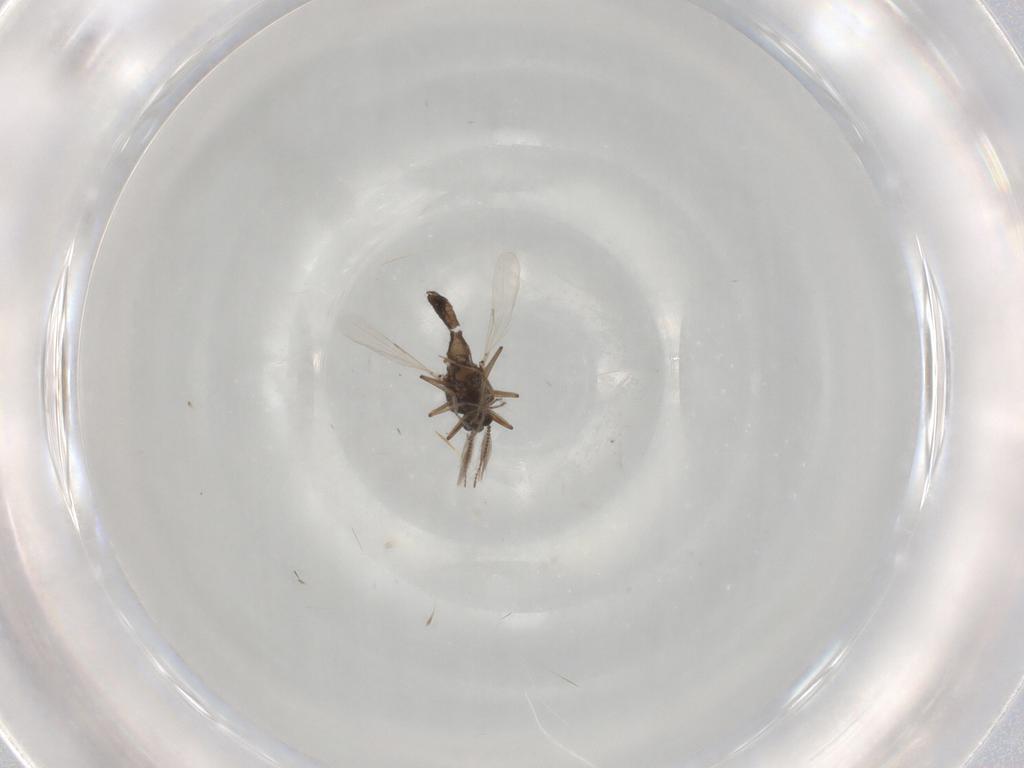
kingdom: Animalia
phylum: Arthropoda
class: Insecta
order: Diptera
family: Ceratopogonidae
